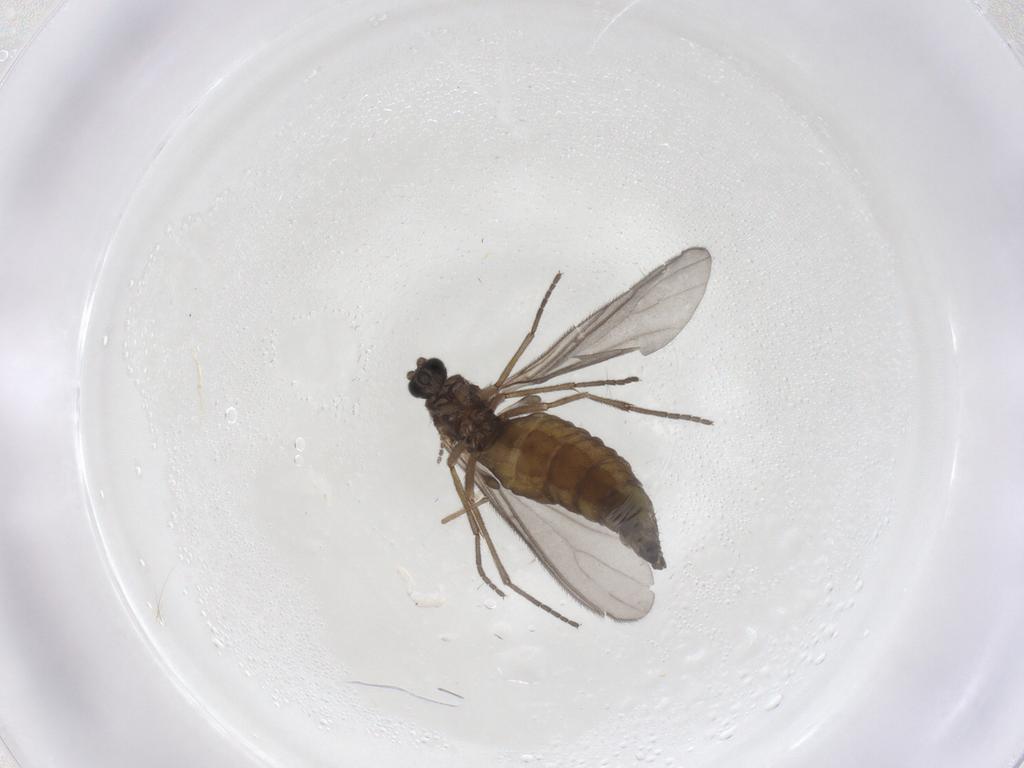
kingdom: Animalia
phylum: Arthropoda
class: Insecta
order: Diptera
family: Sciaridae
